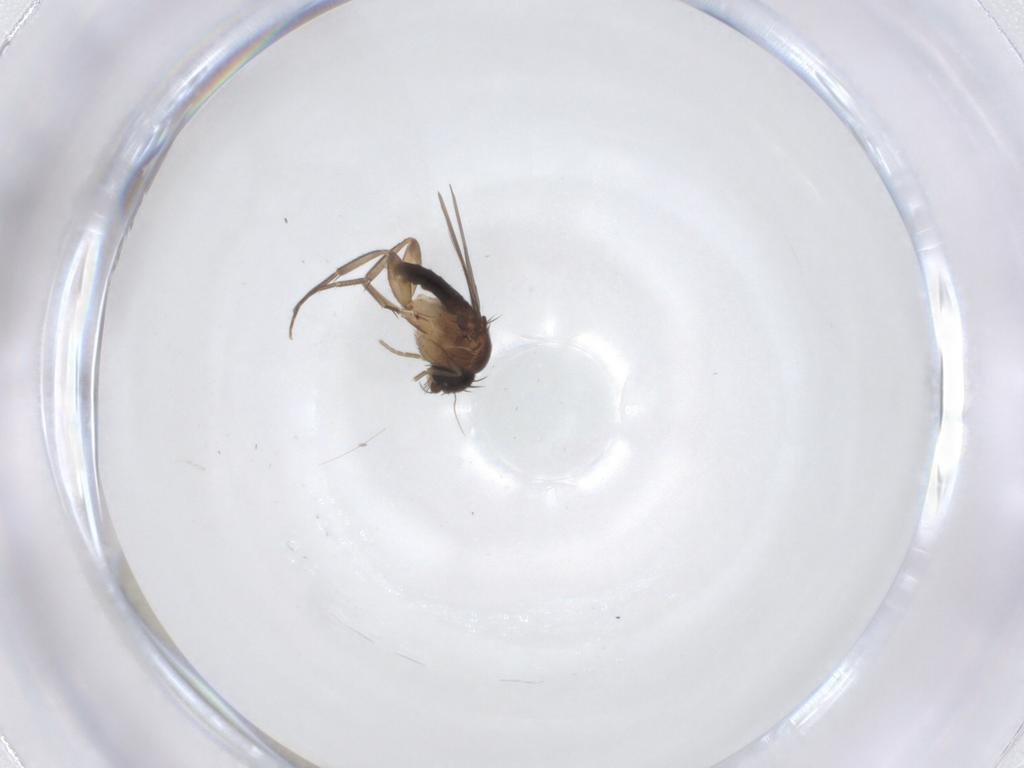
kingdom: Animalia
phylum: Arthropoda
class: Insecta
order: Diptera
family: Phoridae
